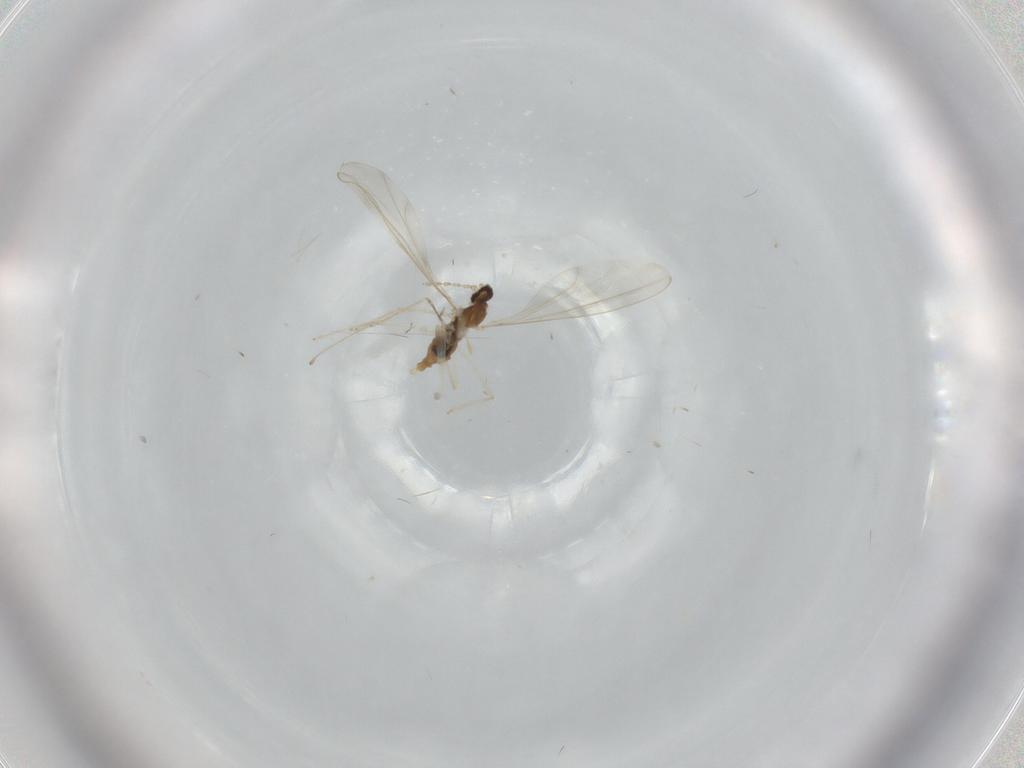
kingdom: Animalia
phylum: Arthropoda
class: Insecta
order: Diptera
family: Cecidomyiidae
